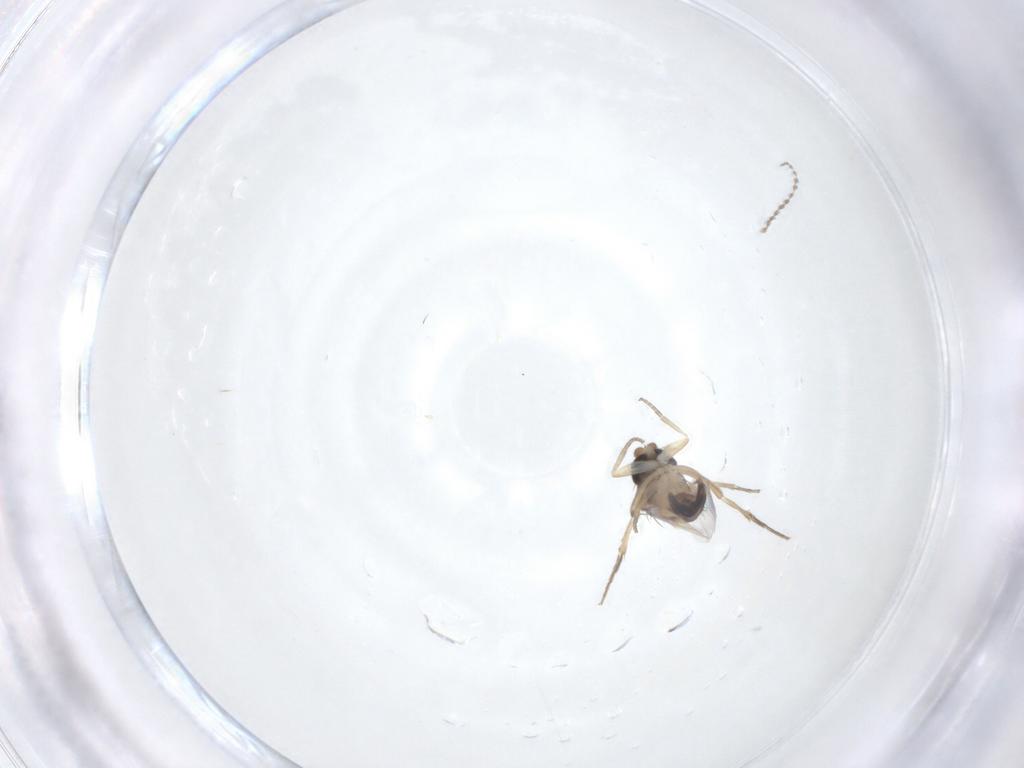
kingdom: Animalia
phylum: Arthropoda
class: Insecta
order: Diptera
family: Phoridae
